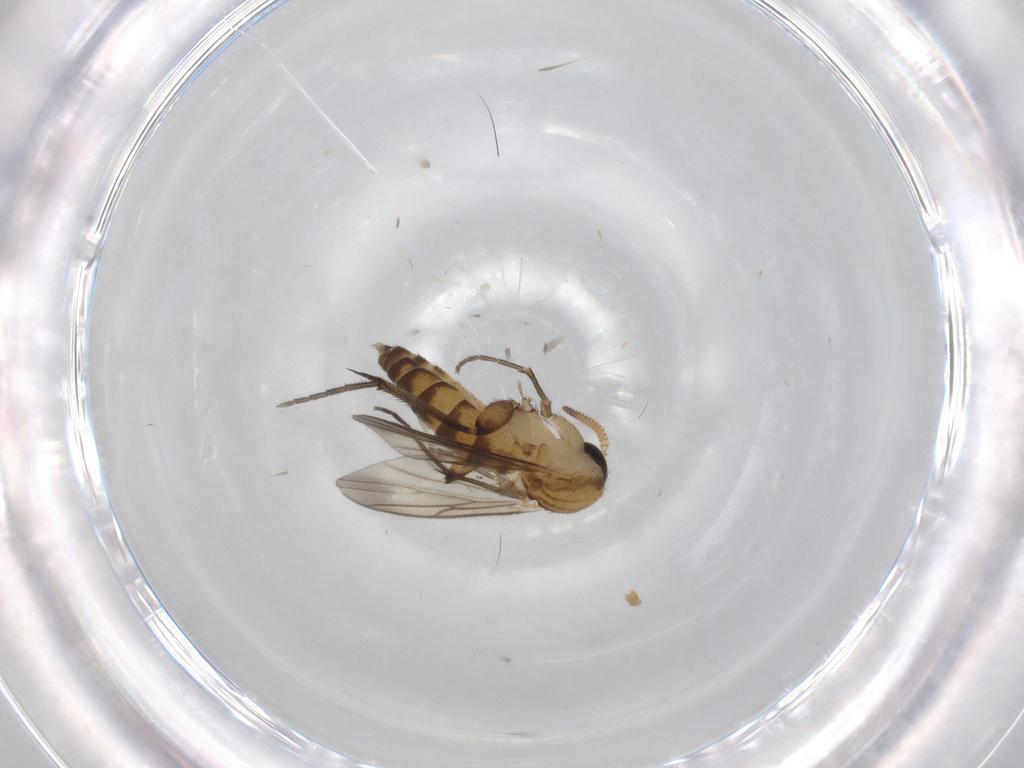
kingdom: Animalia
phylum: Arthropoda
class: Insecta
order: Diptera
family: Mycetophilidae
